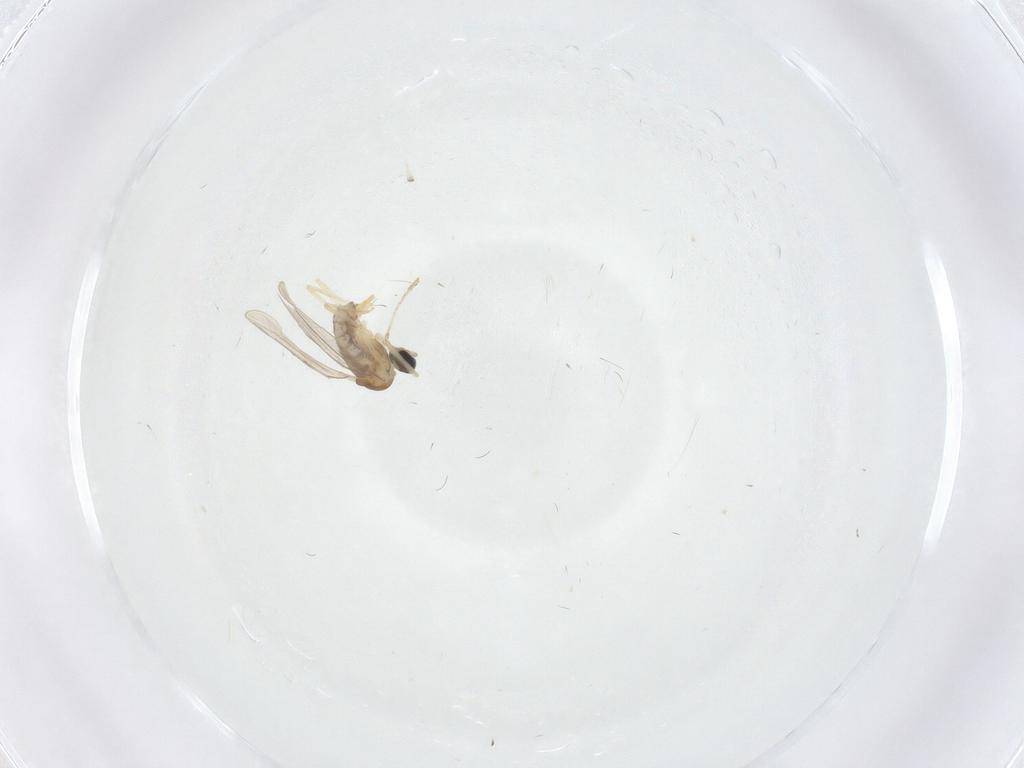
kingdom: Animalia
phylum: Arthropoda
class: Insecta
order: Diptera
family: Cecidomyiidae
